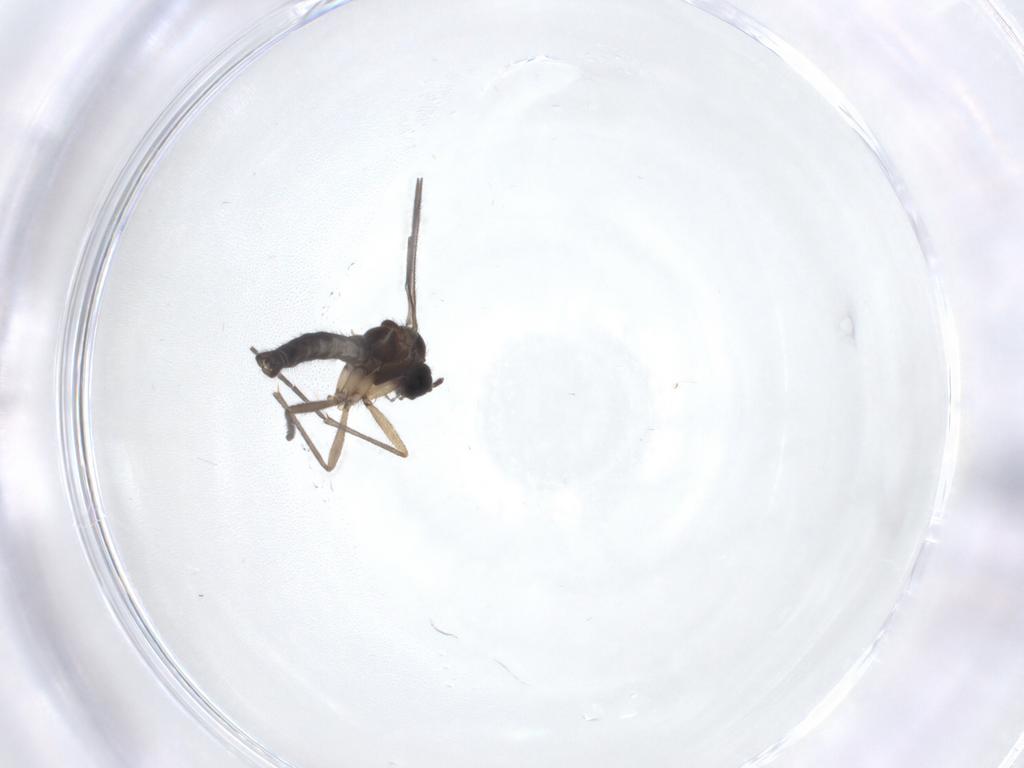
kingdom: Animalia
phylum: Arthropoda
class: Insecta
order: Diptera
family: Sciaridae
